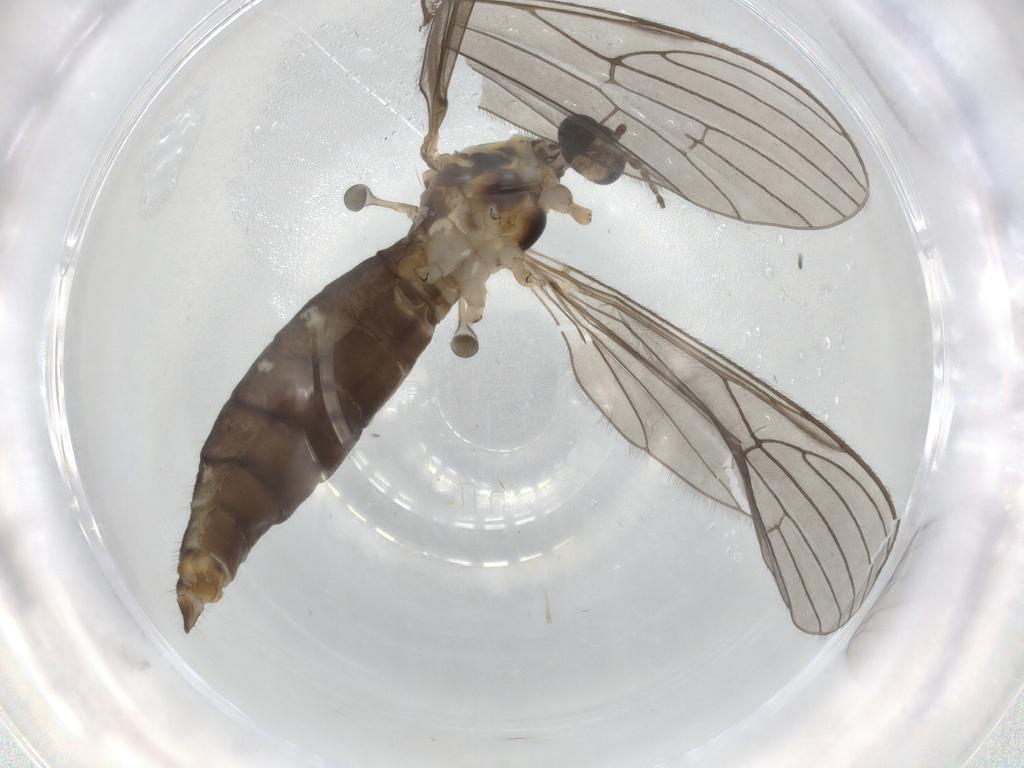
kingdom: Animalia
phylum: Arthropoda
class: Insecta
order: Diptera
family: Limoniidae
